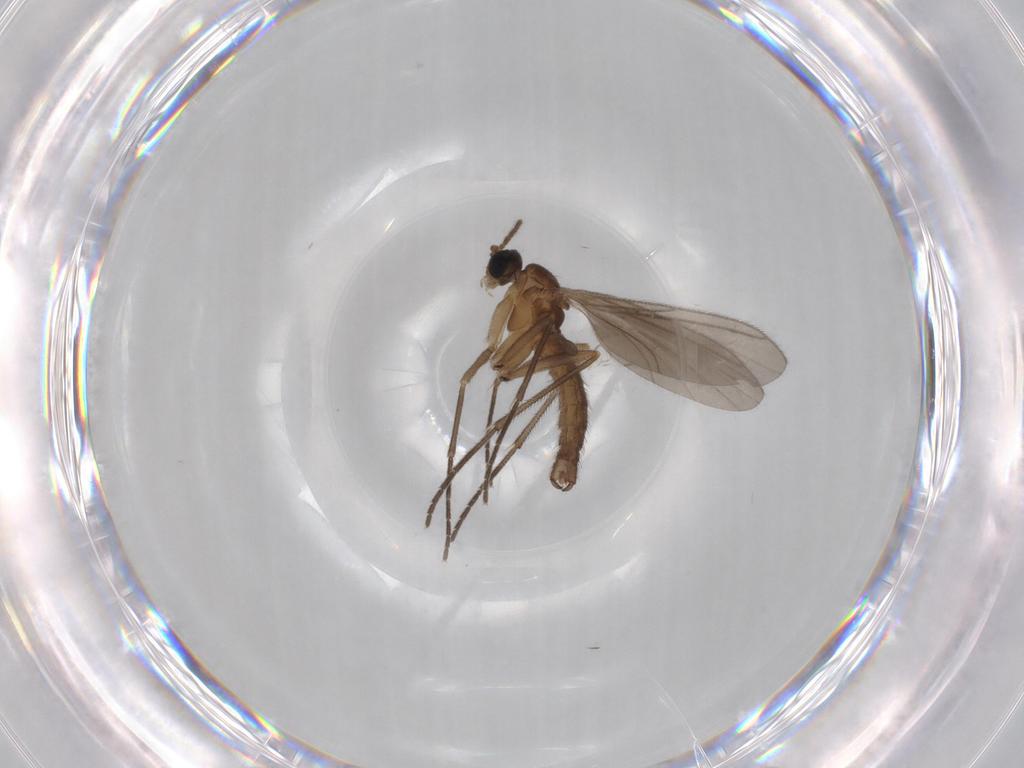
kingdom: Animalia
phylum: Arthropoda
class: Insecta
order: Diptera
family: Sciaridae
